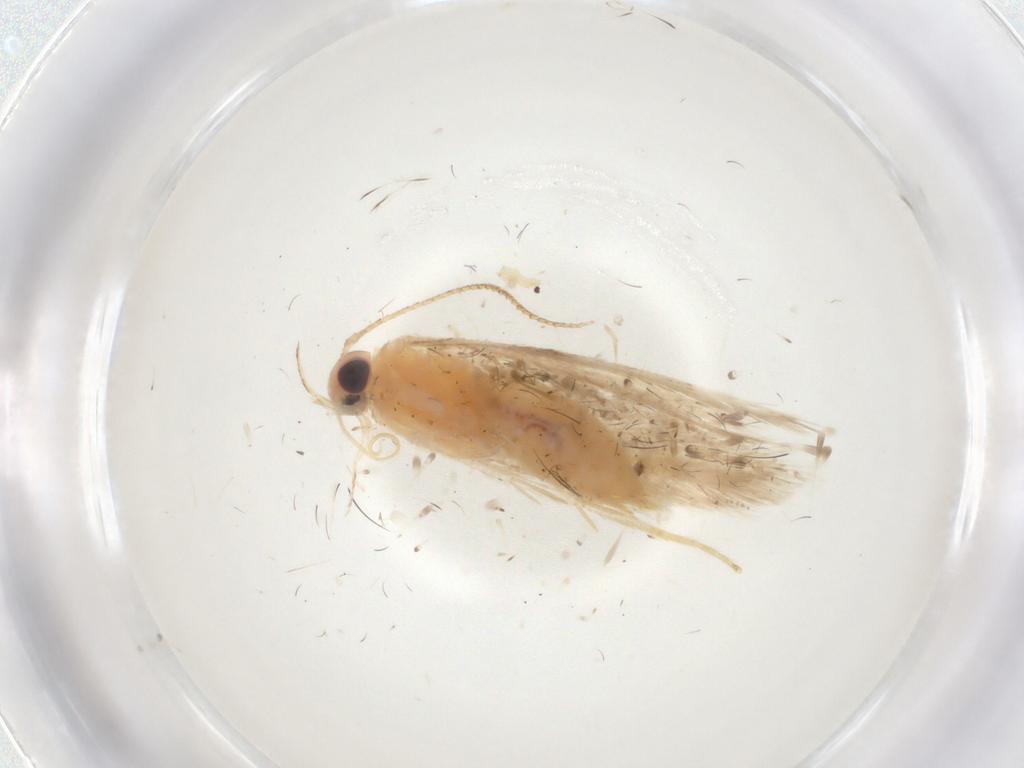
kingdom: Animalia
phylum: Arthropoda
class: Insecta
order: Lepidoptera
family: Gelechiidae
